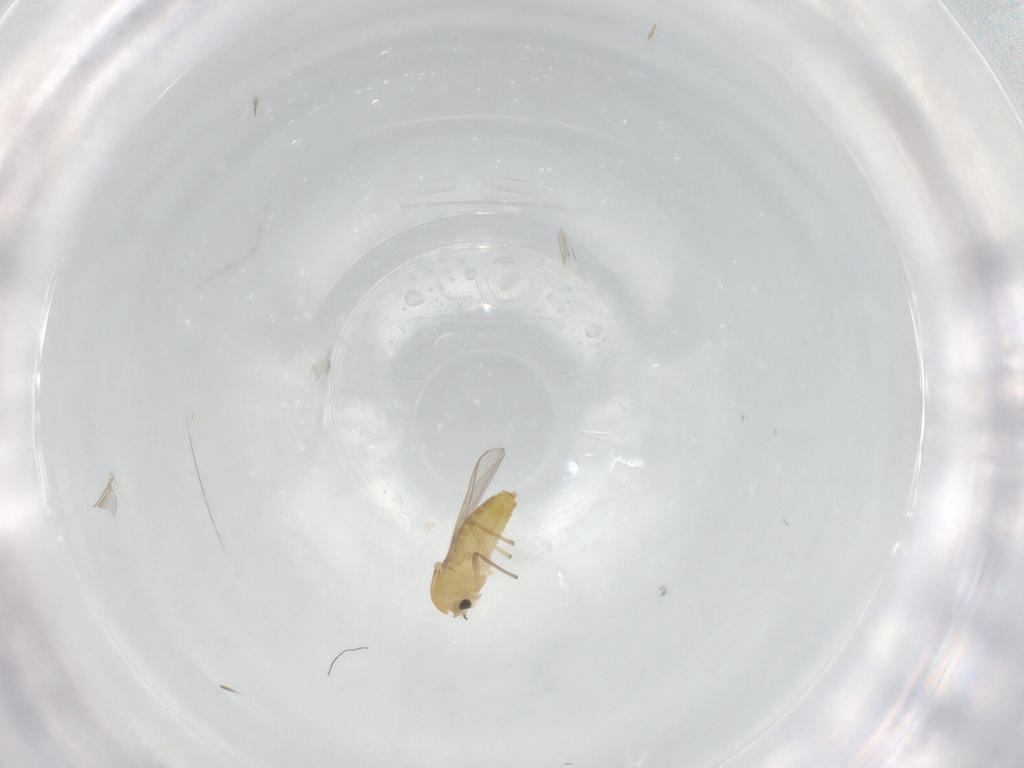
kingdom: Animalia
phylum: Arthropoda
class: Insecta
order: Diptera
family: Chironomidae
